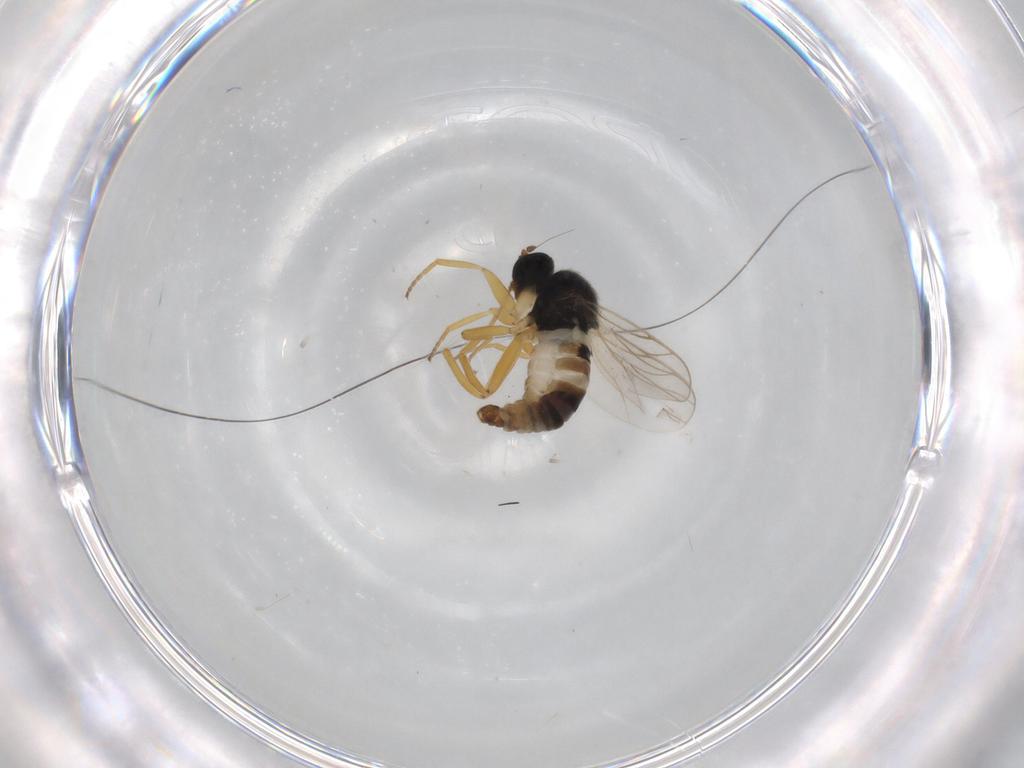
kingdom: Animalia
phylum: Arthropoda
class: Insecta
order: Diptera
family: Hybotidae
